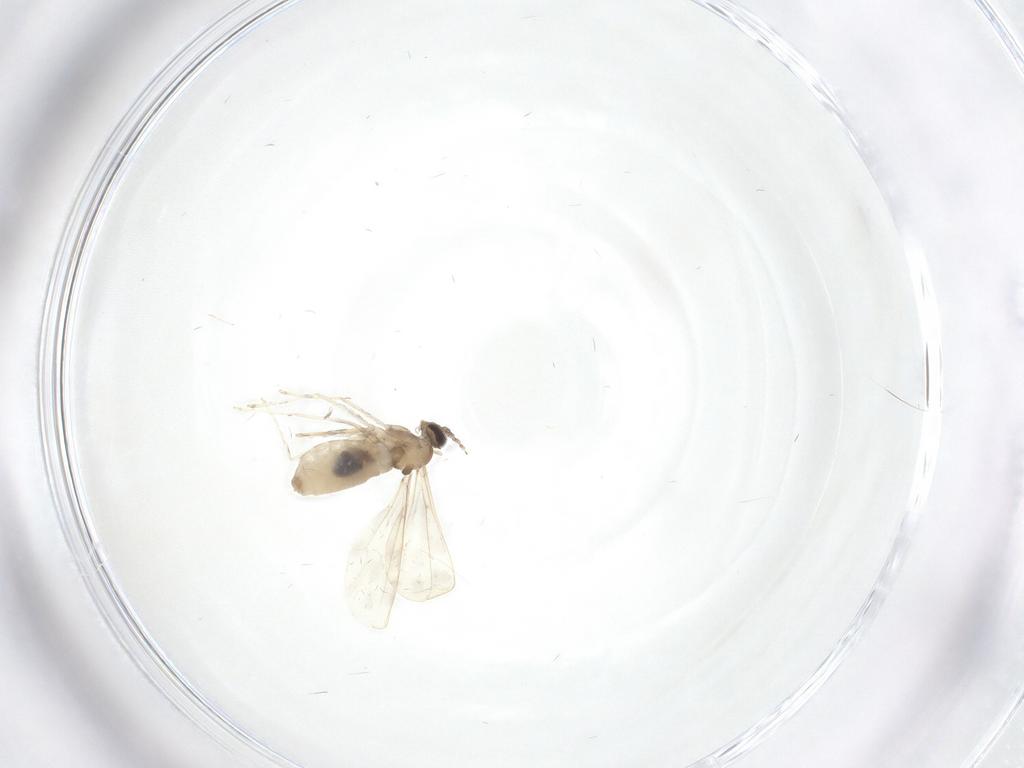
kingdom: Animalia
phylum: Arthropoda
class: Insecta
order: Diptera
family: Cecidomyiidae
